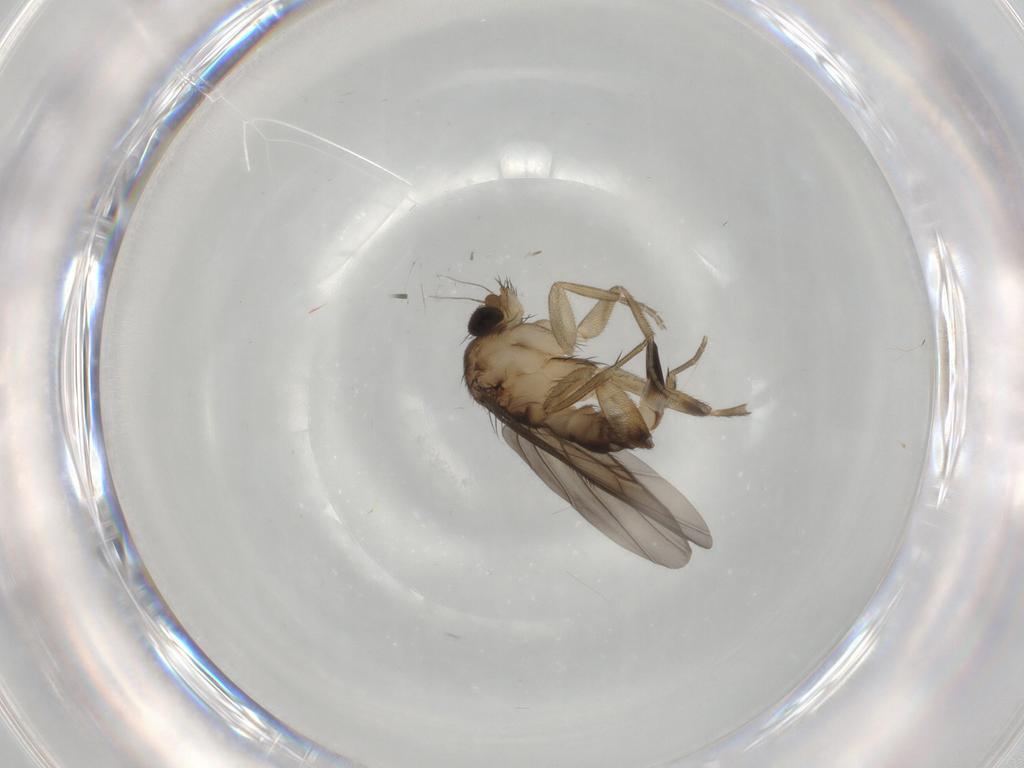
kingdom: Animalia
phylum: Arthropoda
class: Insecta
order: Diptera
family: Phoridae
